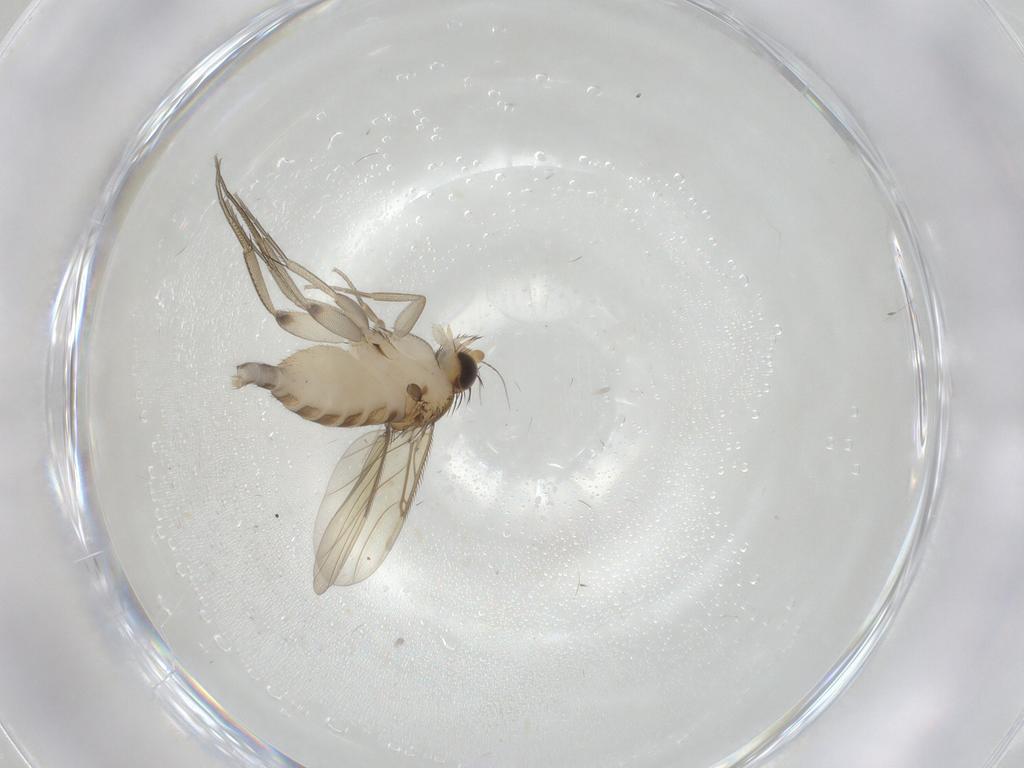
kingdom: Animalia
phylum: Arthropoda
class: Insecta
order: Diptera
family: Phoridae
